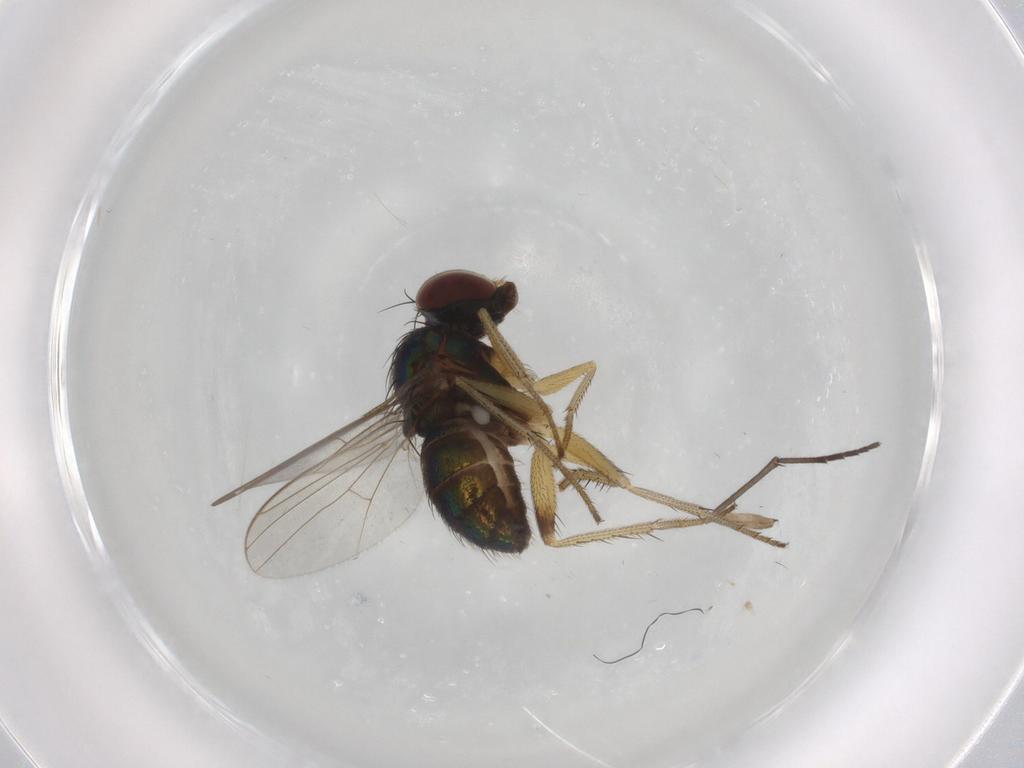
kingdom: Animalia
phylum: Arthropoda
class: Insecta
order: Diptera
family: Sciaridae
